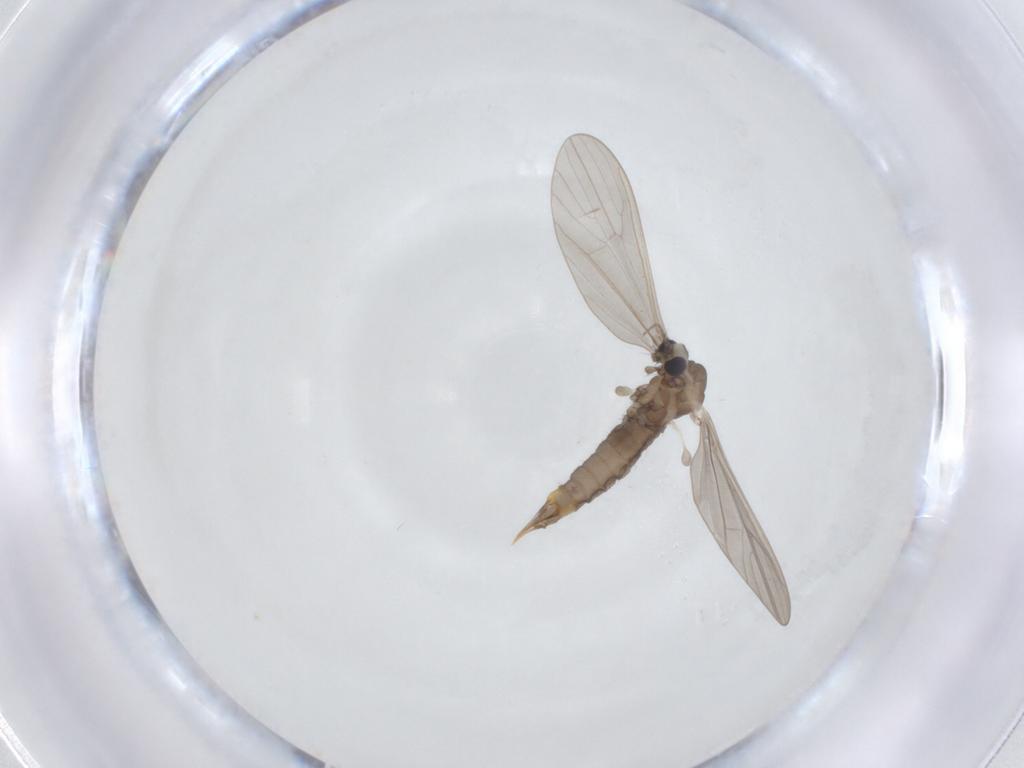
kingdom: Animalia
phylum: Arthropoda
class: Insecta
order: Diptera
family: Limoniidae
